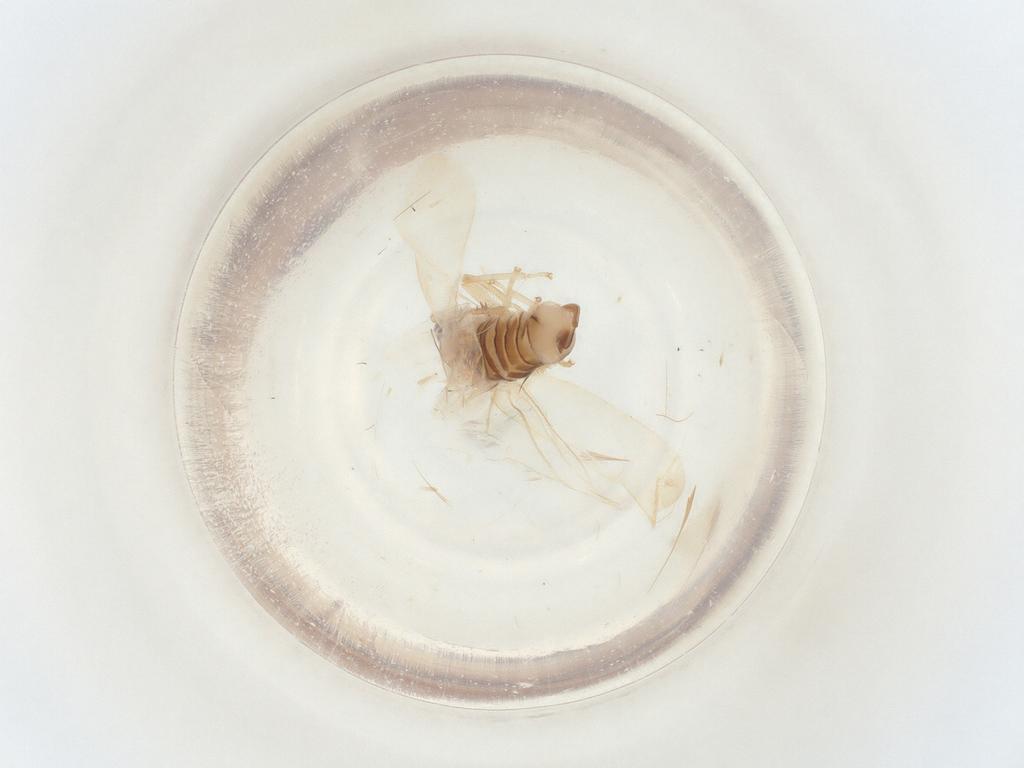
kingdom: Animalia
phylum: Arthropoda
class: Insecta
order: Hemiptera
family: Cicadellidae
